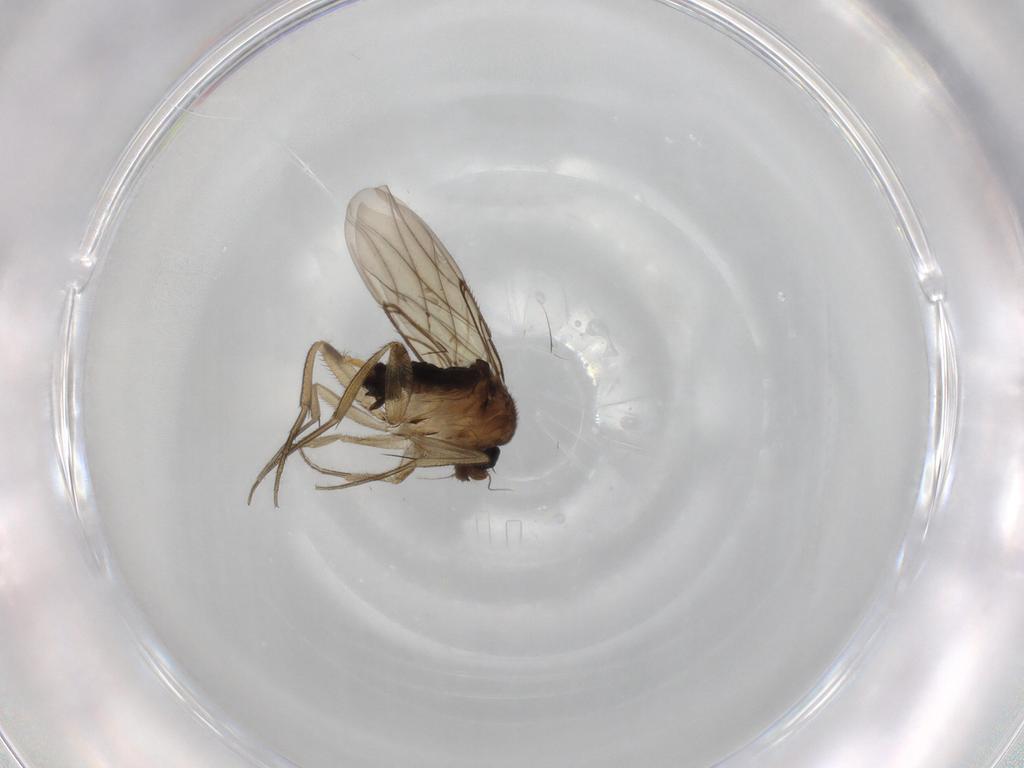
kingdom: Animalia
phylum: Arthropoda
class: Insecta
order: Diptera
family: Phoridae
